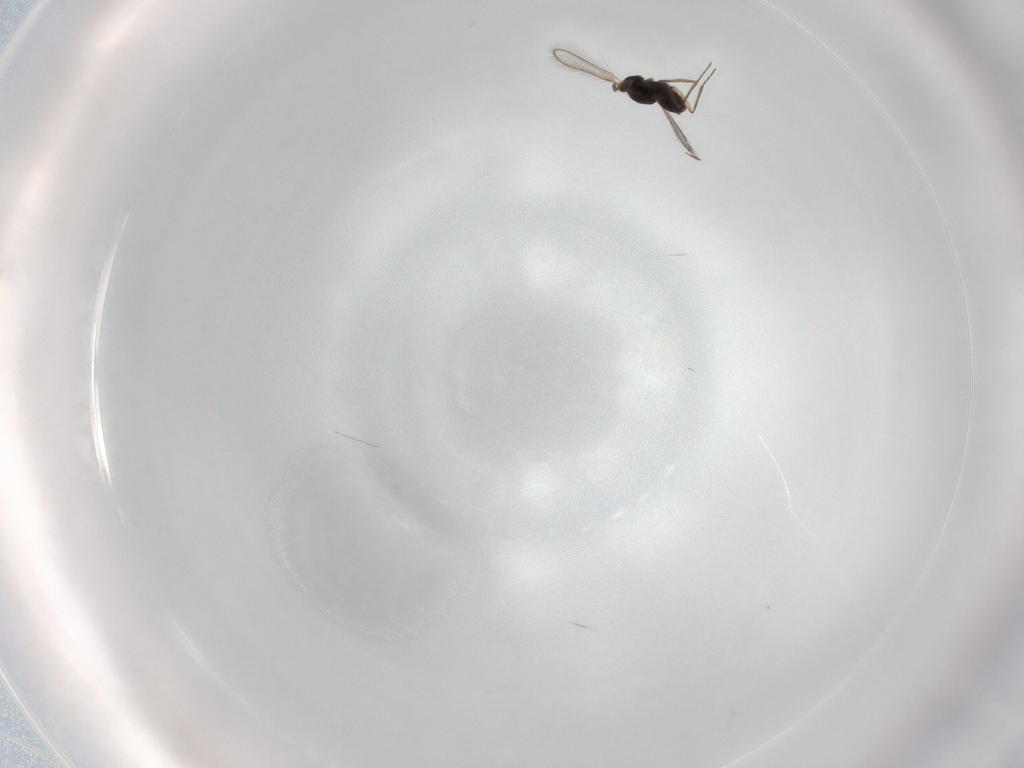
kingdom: Animalia
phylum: Arthropoda
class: Insecta
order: Hymenoptera
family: Mymaridae
